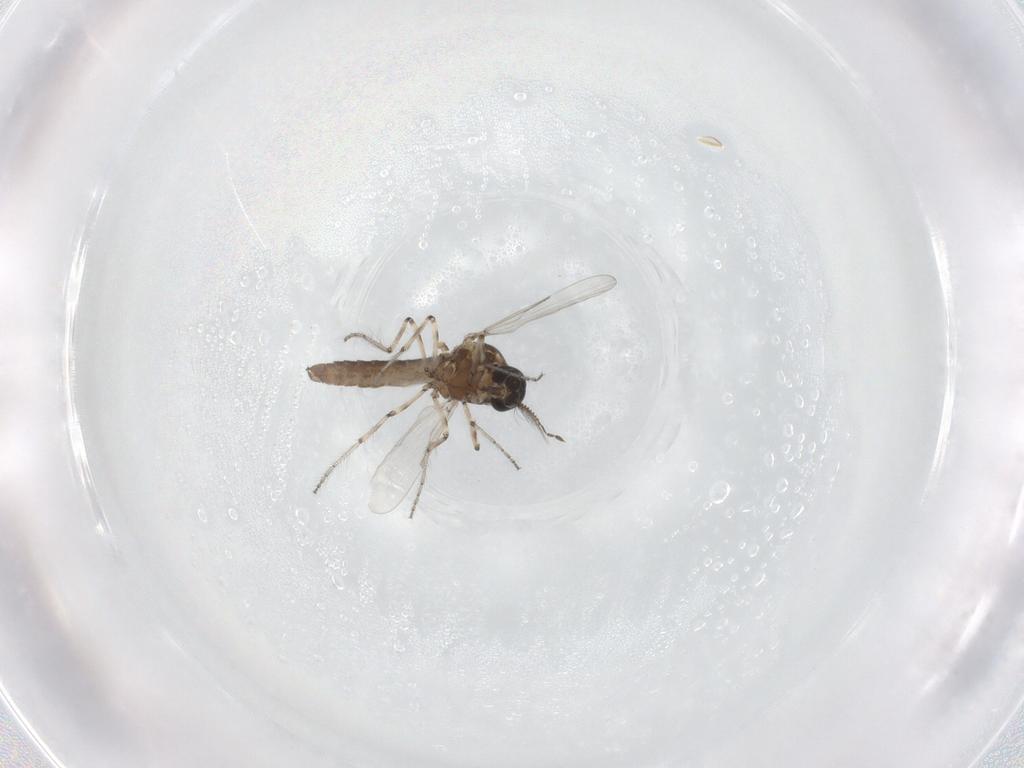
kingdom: Animalia
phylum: Arthropoda
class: Insecta
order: Diptera
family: Ceratopogonidae
